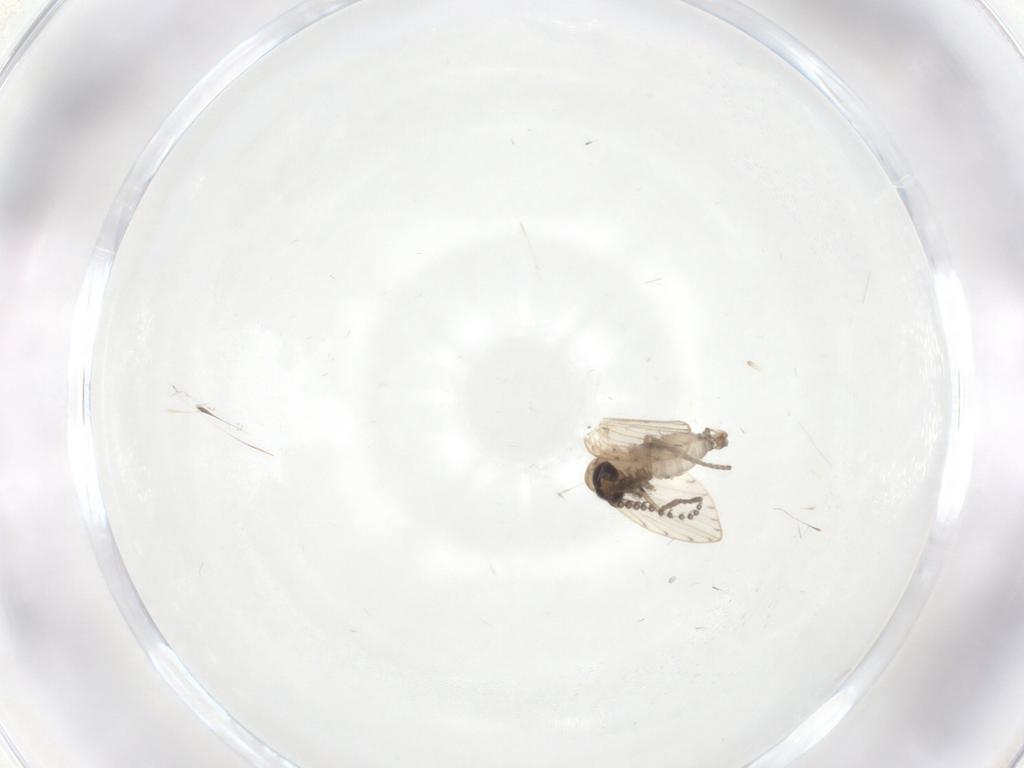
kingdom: Animalia
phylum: Arthropoda
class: Insecta
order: Diptera
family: Psychodidae
